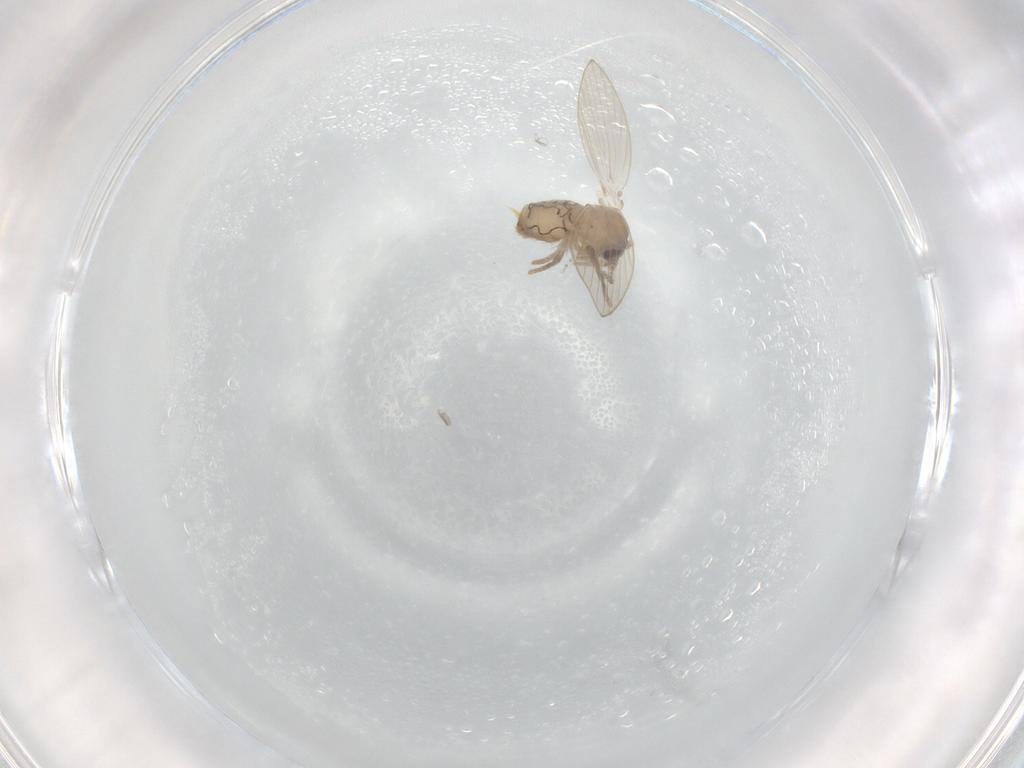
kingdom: Animalia
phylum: Arthropoda
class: Insecta
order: Diptera
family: Psychodidae
